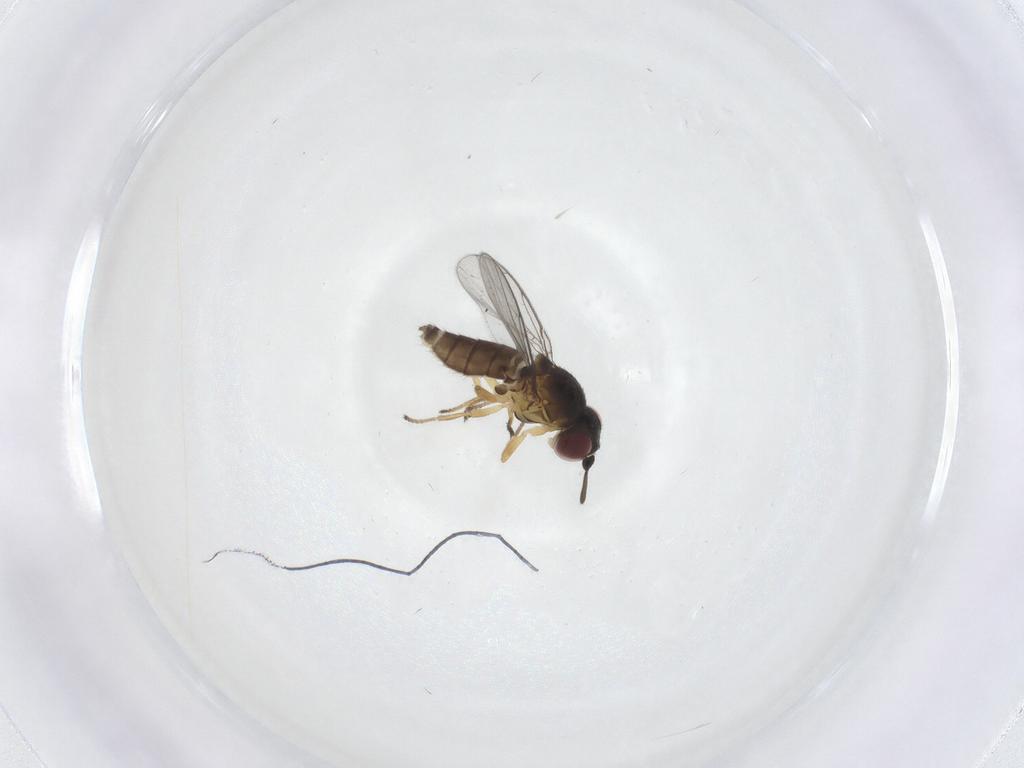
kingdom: Animalia
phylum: Arthropoda
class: Insecta
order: Diptera
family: Chloropidae
